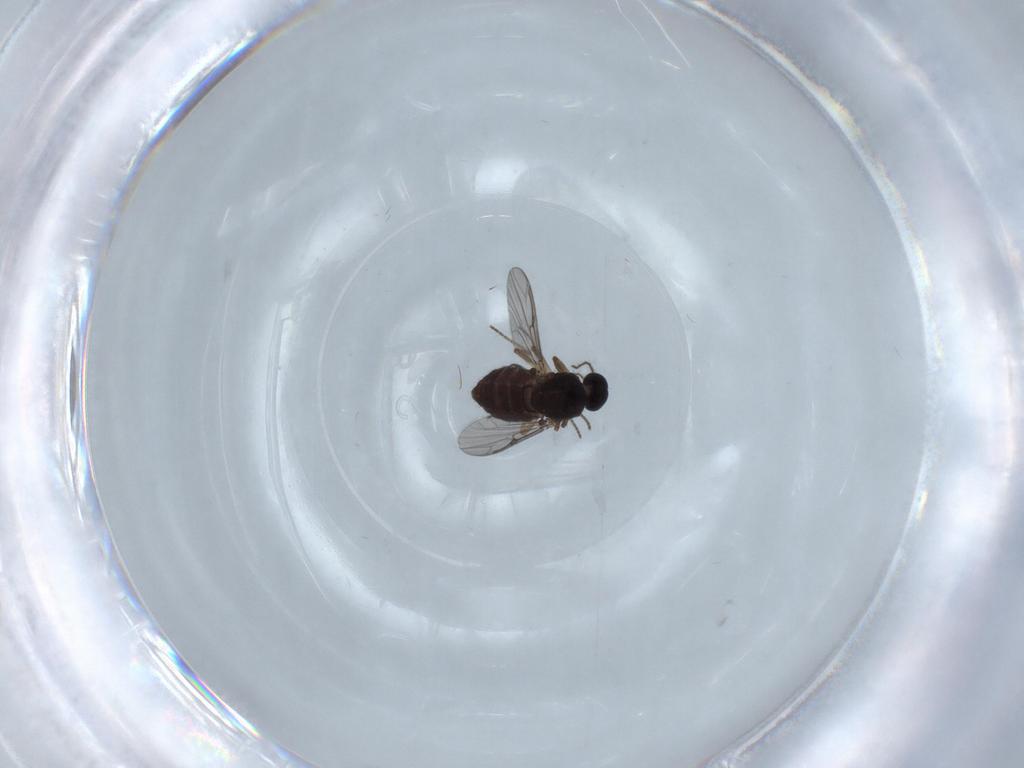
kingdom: Animalia
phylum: Arthropoda
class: Insecta
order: Diptera
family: Ceratopogonidae
